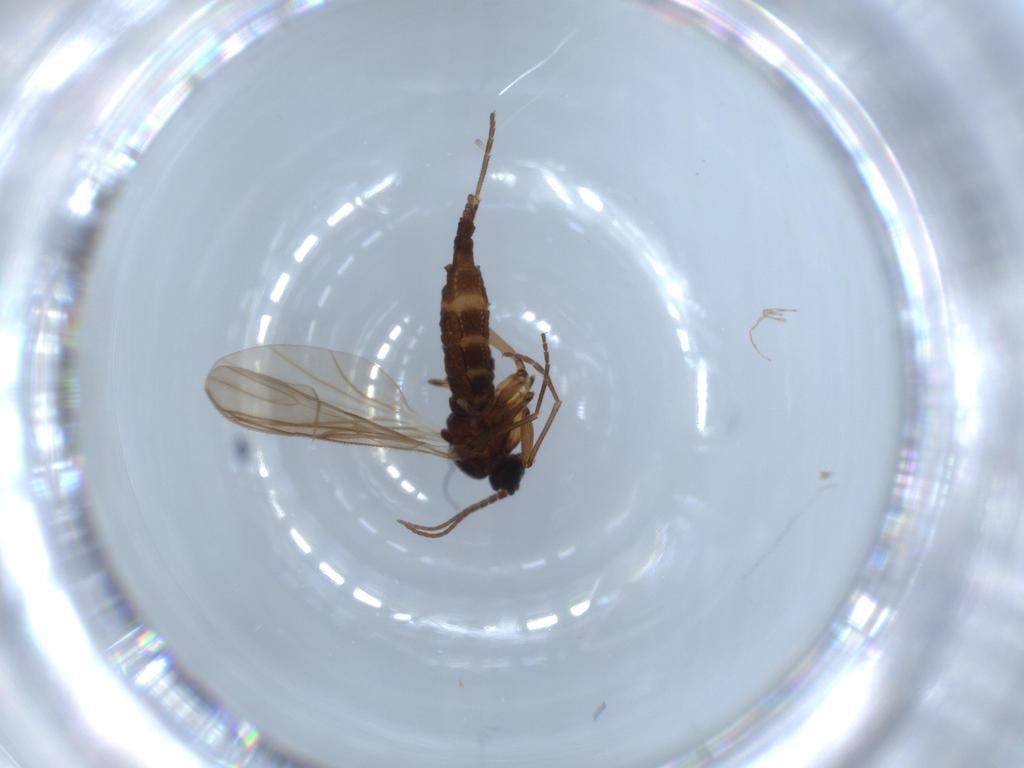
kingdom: Animalia
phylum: Arthropoda
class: Insecta
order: Diptera
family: Sciaridae
